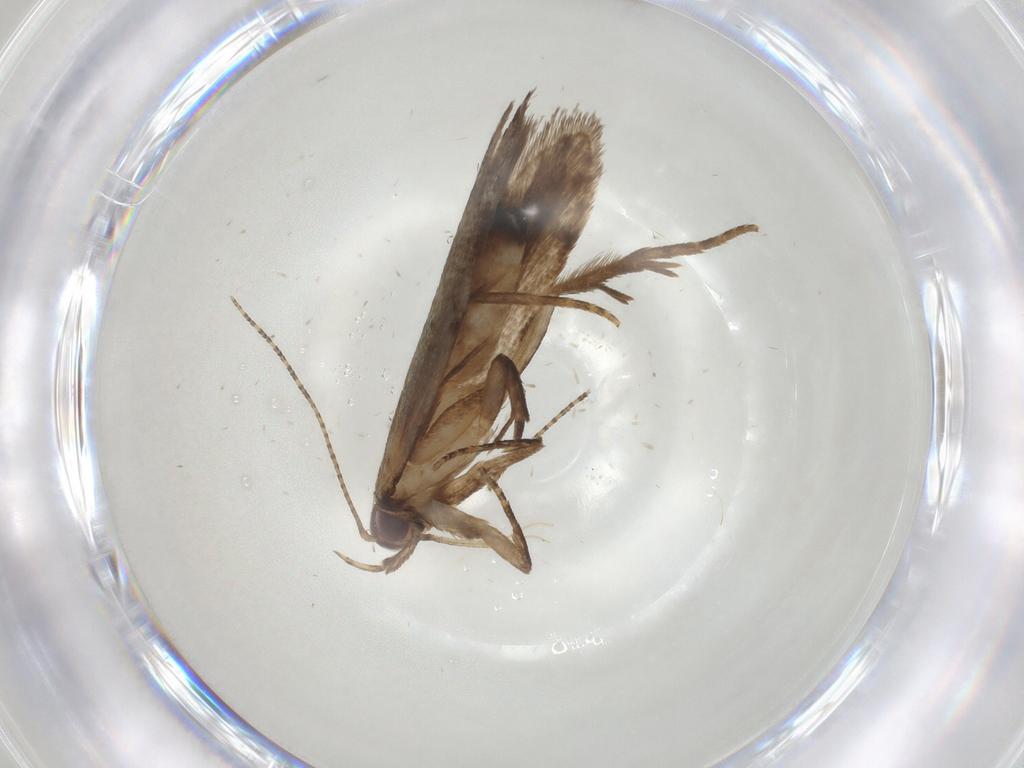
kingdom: Animalia
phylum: Arthropoda
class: Insecta
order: Lepidoptera
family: Gelechiidae
